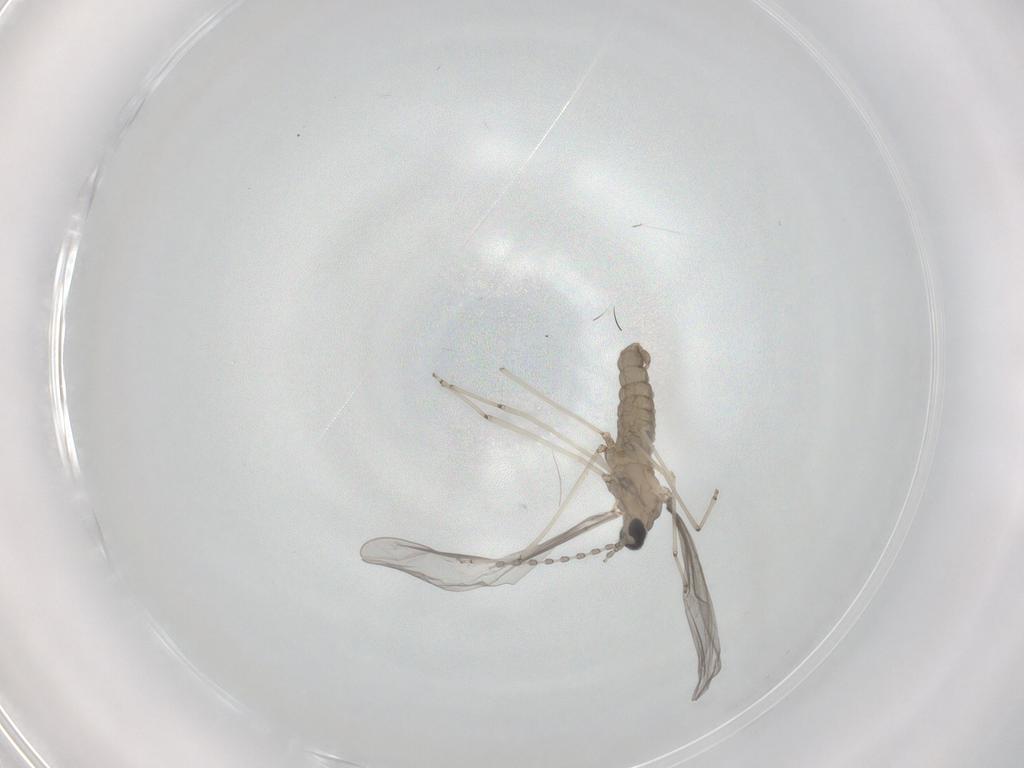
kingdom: Animalia
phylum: Arthropoda
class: Insecta
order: Diptera
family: Cecidomyiidae
